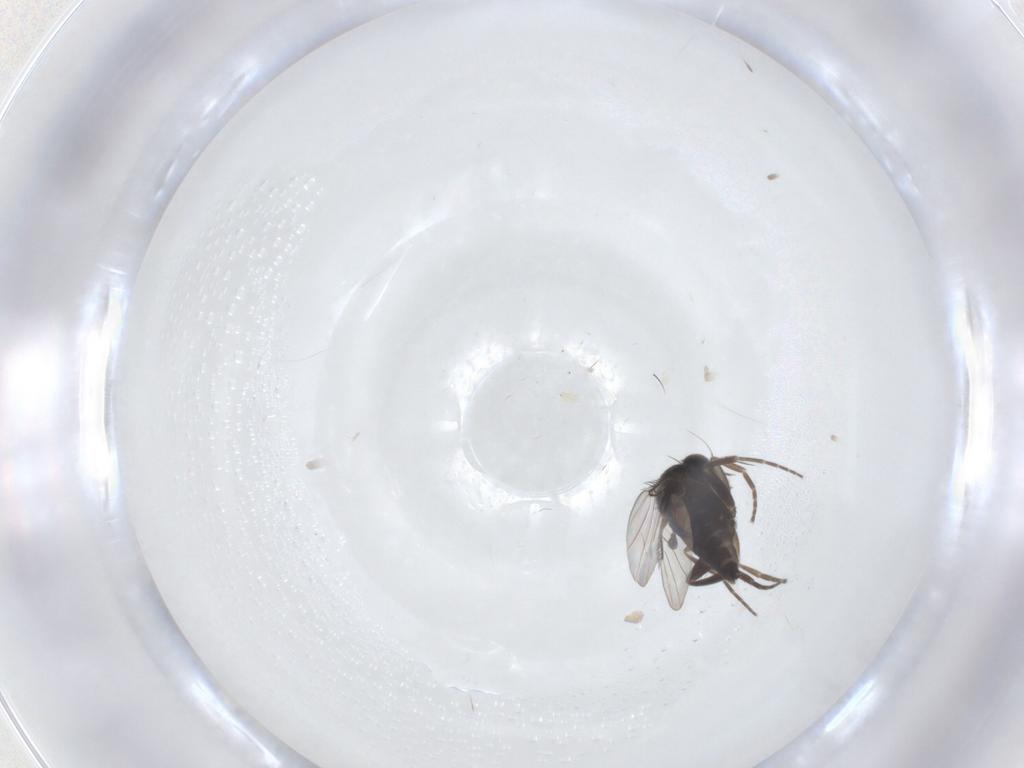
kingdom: Animalia
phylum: Arthropoda
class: Insecta
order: Diptera
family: Phoridae
